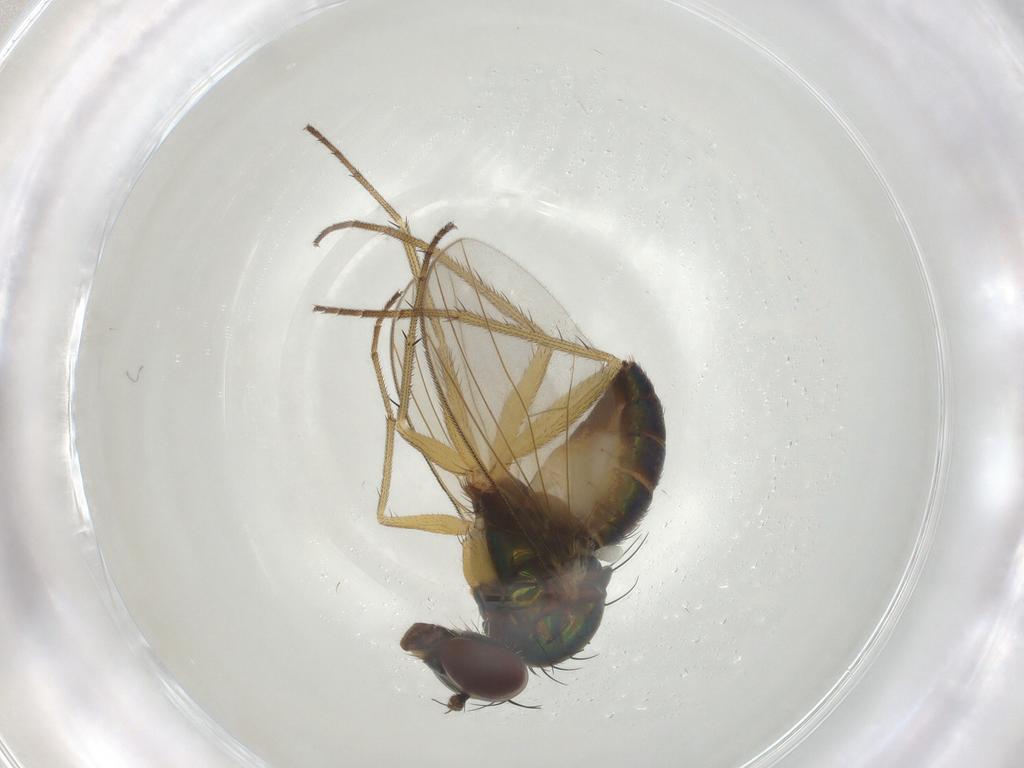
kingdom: Animalia
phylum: Arthropoda
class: Insecta
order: Diptera
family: Dolichopodidae
